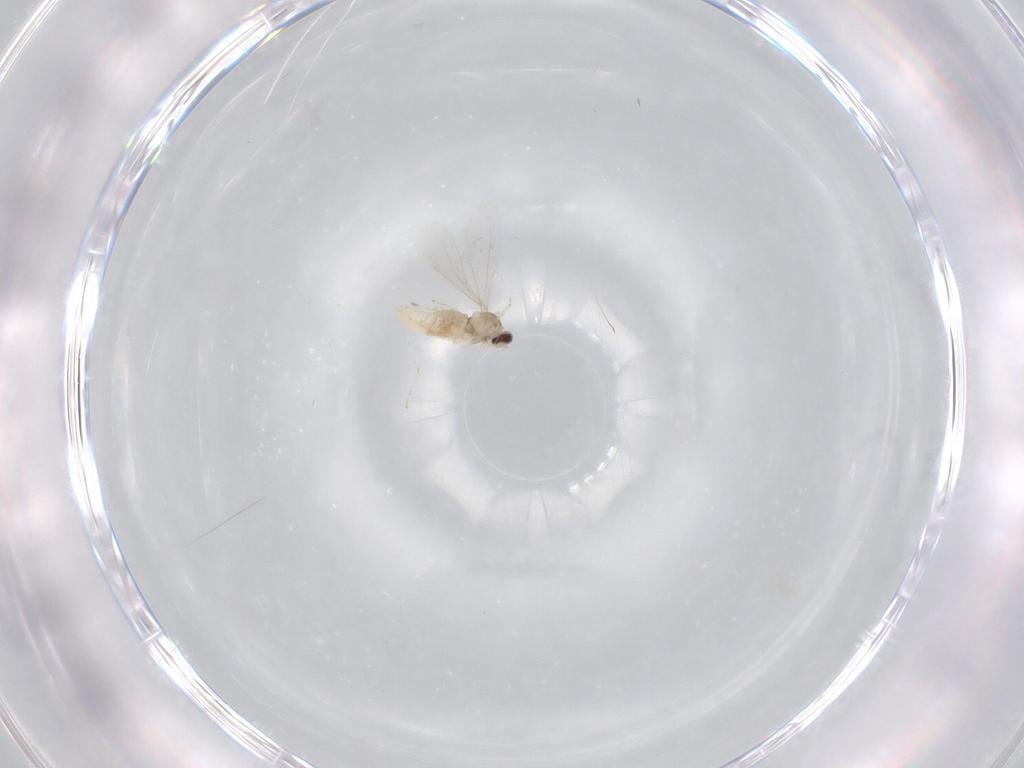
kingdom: Animalia
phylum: Arthropoda
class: Insecta
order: Diptera
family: Cecidomyiidae
